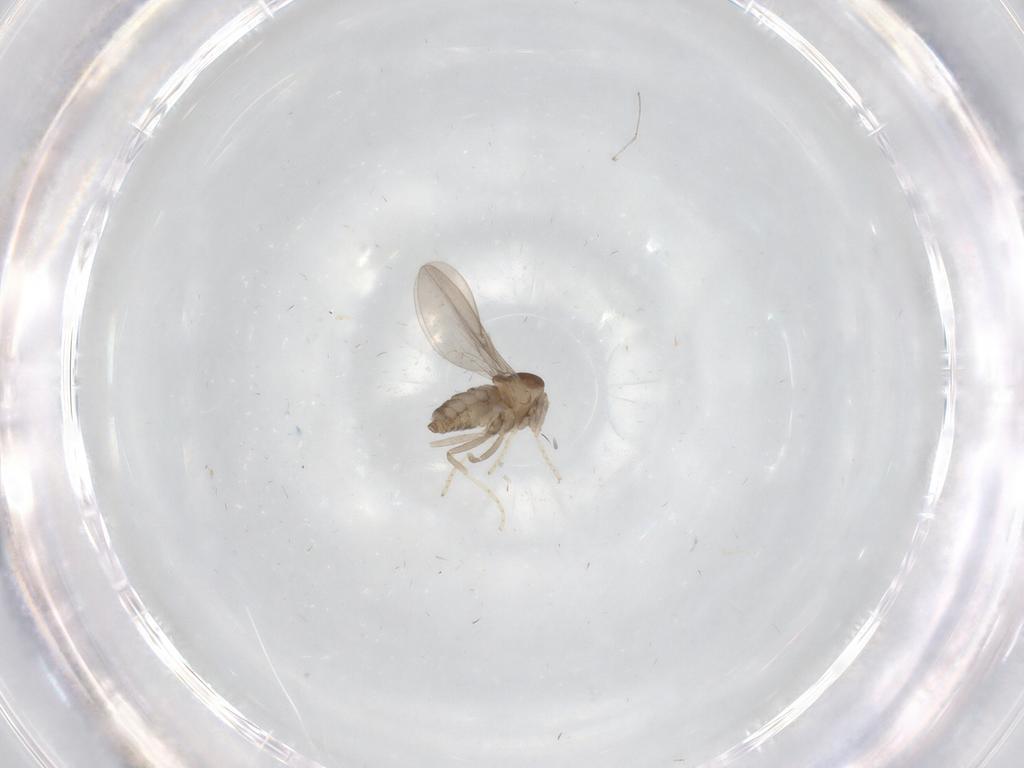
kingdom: Animalia
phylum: Arthropoda
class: Insecta
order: Diptera
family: Cecidomyiidae
